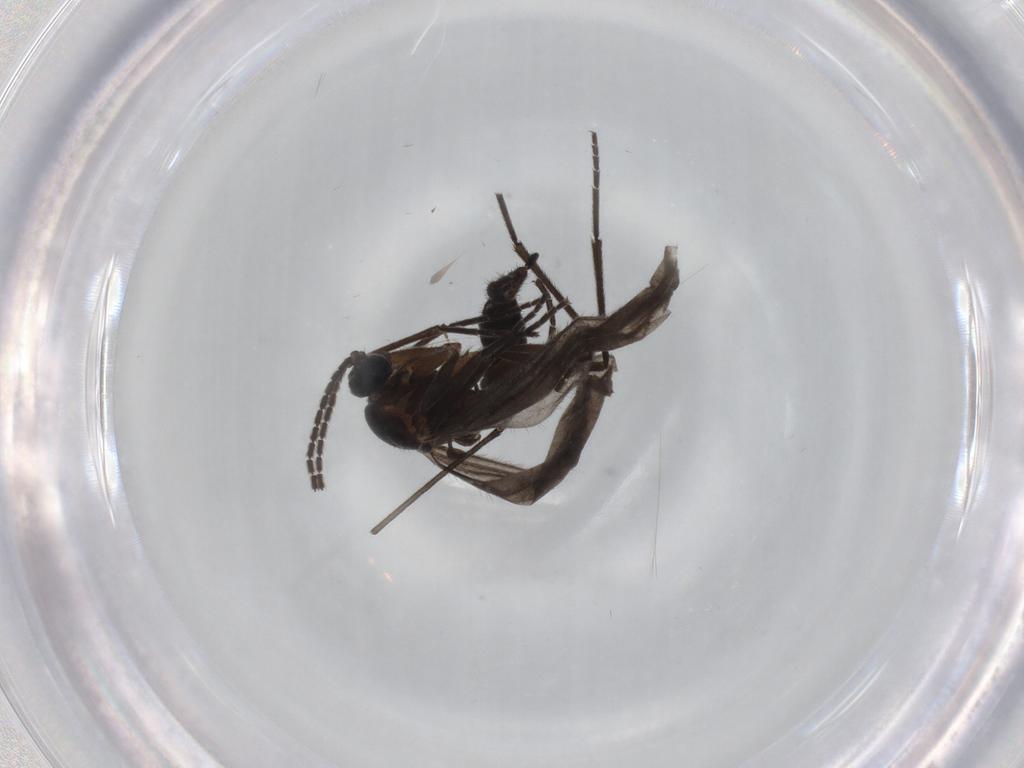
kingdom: Animalia
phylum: Arthropoda
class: Insecta
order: Diptera
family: Sciaridae
